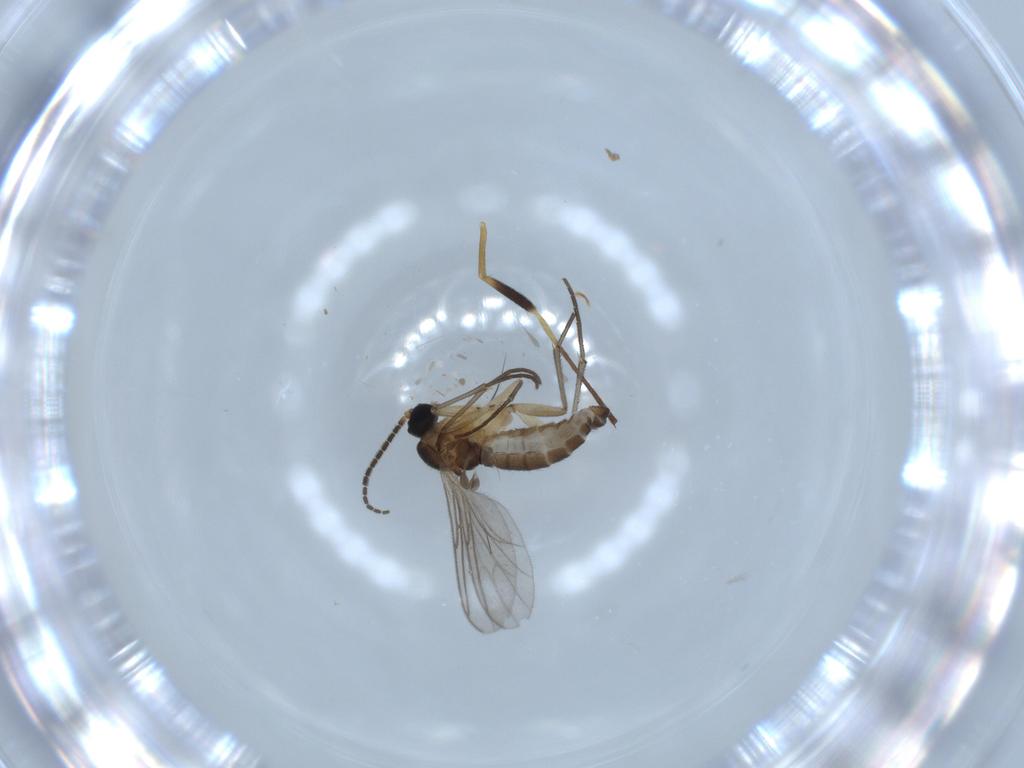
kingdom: Animalia
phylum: Arthropoda
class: Insecta
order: Diptera
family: Sciaridae
